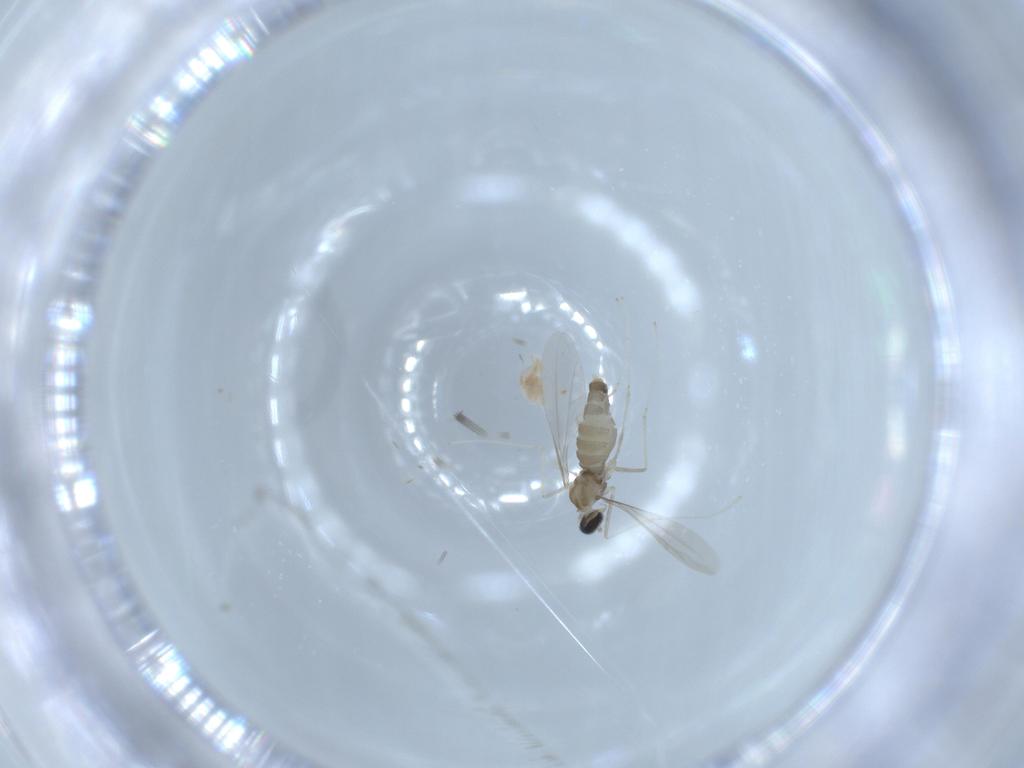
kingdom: Animalia
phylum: Arthropoda
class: Insecta
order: Diptera
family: Cecidomyiidae
